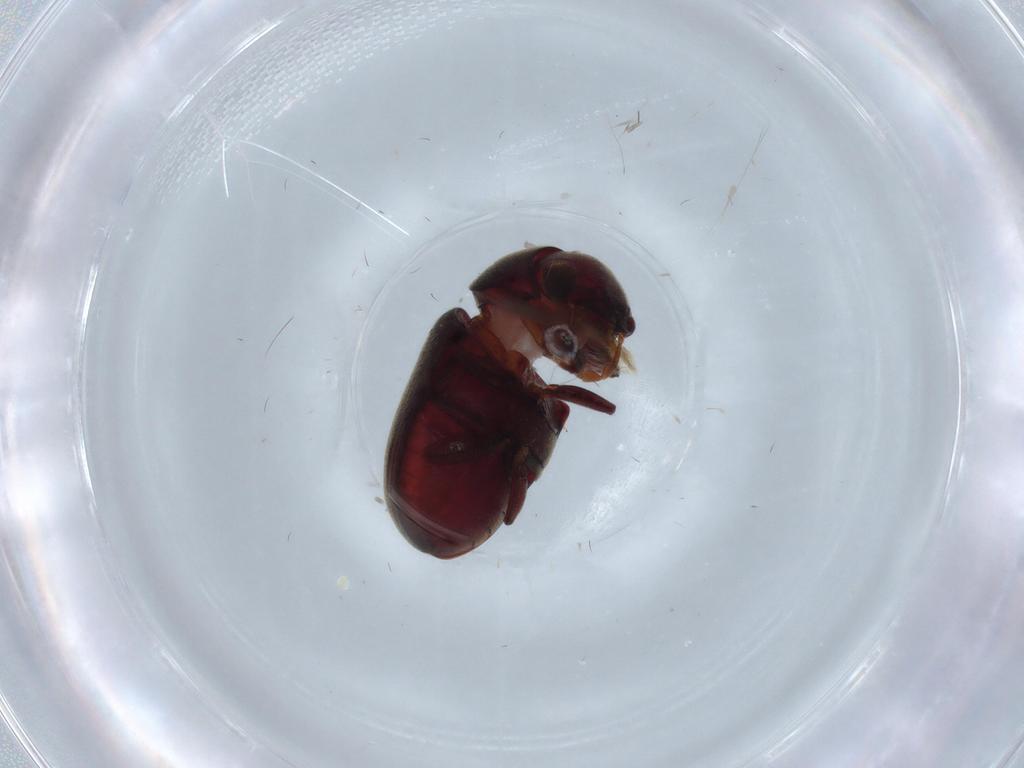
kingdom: Animalia
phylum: Arthropoda
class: Insecta
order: Coleoptera
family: Ptinidae
